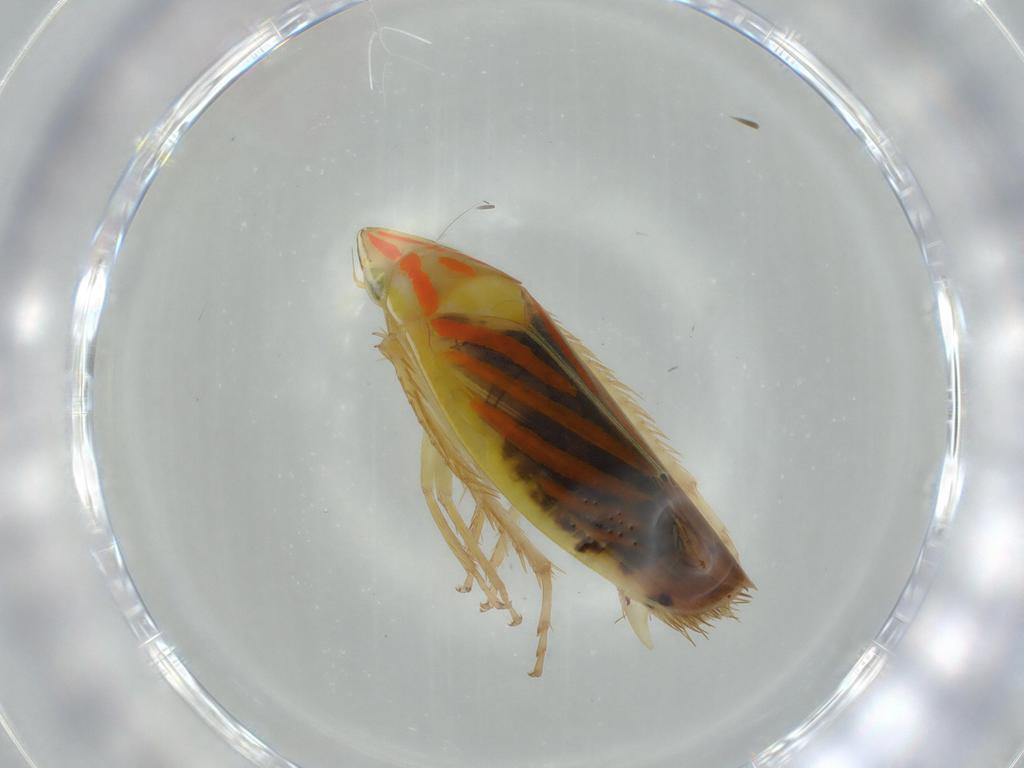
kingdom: Animalia
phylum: Arthropoda
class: Insecta
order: Hemiptera
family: Cicadellidae
